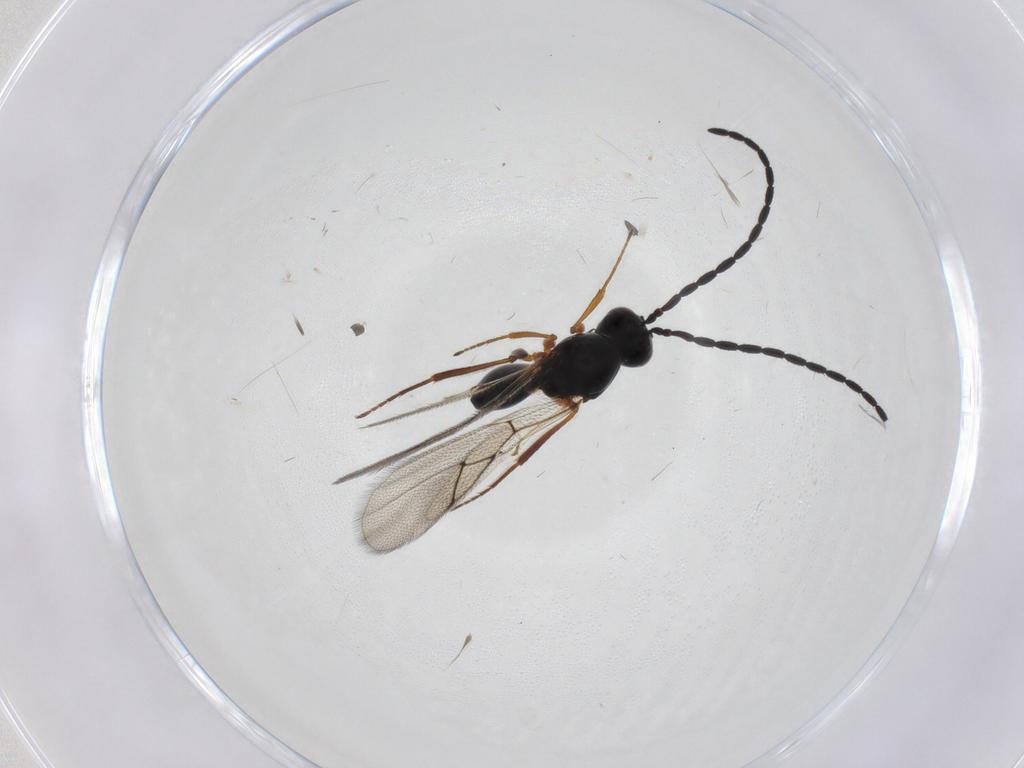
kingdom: Animalia
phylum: Arthropoda
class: Insecta
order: Hymenoptera
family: Figitidae
